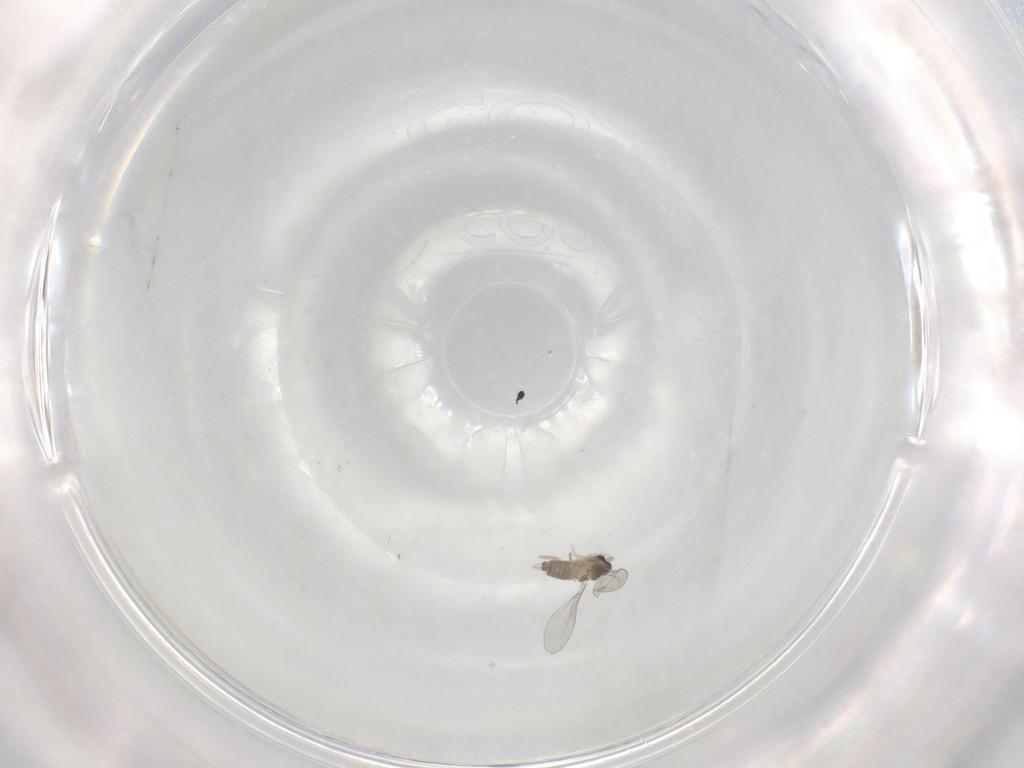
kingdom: Animalia
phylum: Arthropoda
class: Insecta
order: Diptera
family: Cecidomyiidae
